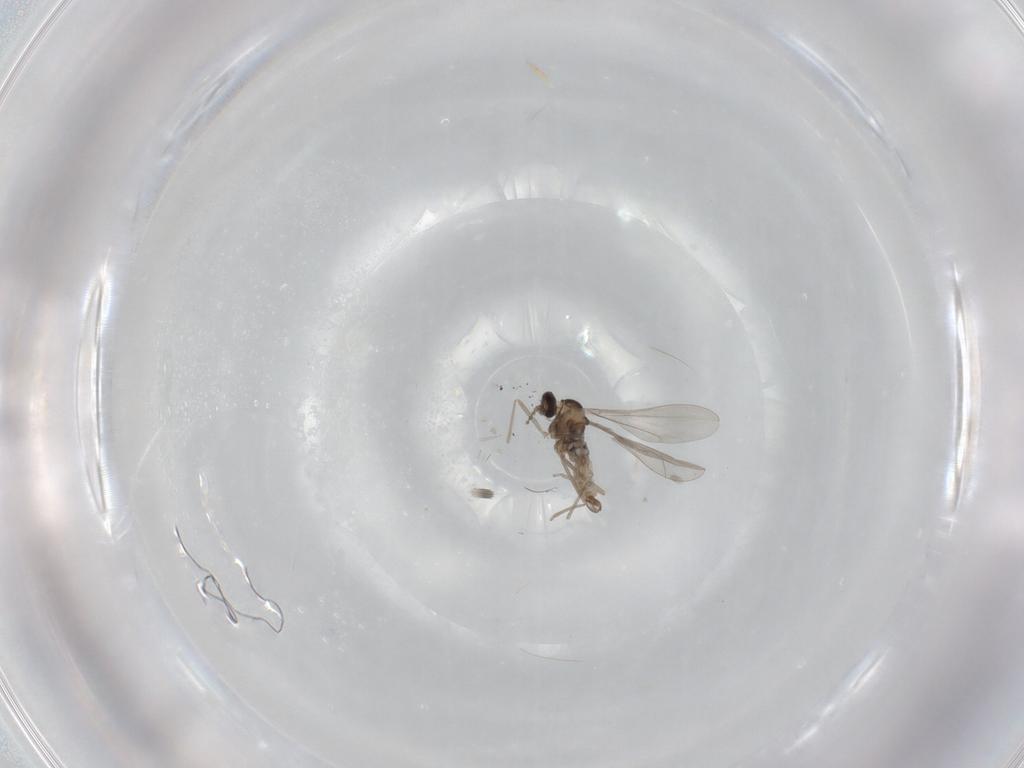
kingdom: Animalia
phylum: Arthropoda
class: Insecta
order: Diptera
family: Cecidomyiidae
